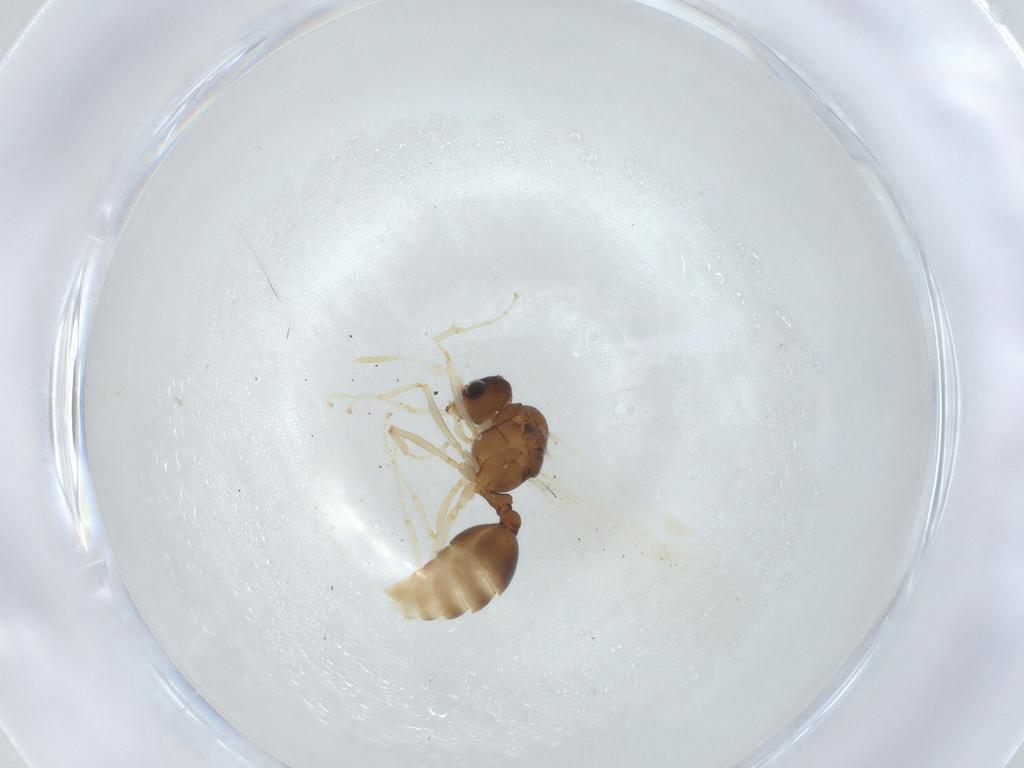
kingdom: Animalia
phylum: Arthropoda
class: Insecta
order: Hymenoptera
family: Formicidae
